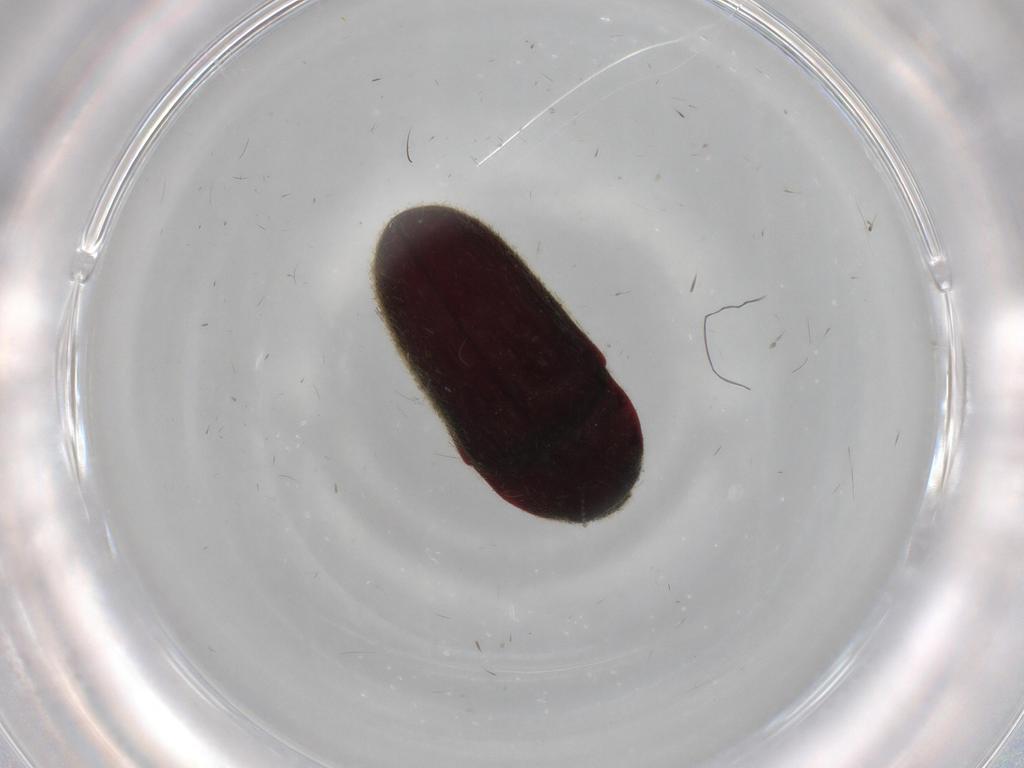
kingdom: Animalia
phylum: Arthropoda
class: Insecta
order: Coleoptera
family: Throscidae
